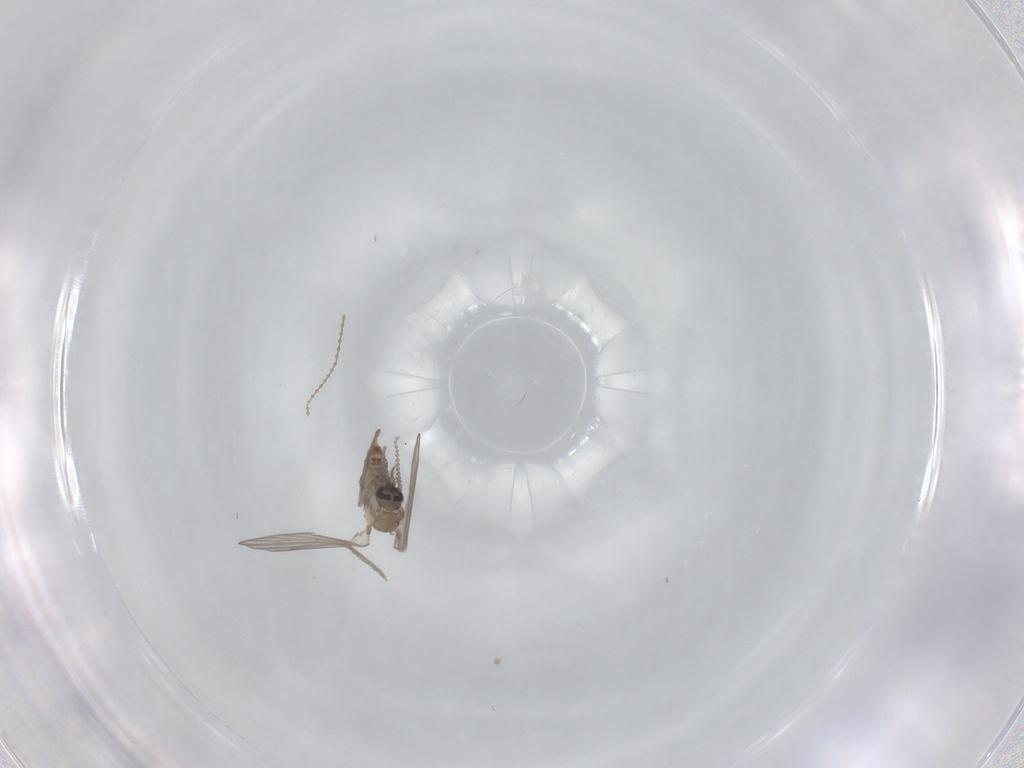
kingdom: Animalia
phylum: Arthropoda
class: Insecta
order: Diptera
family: Psychodidae
